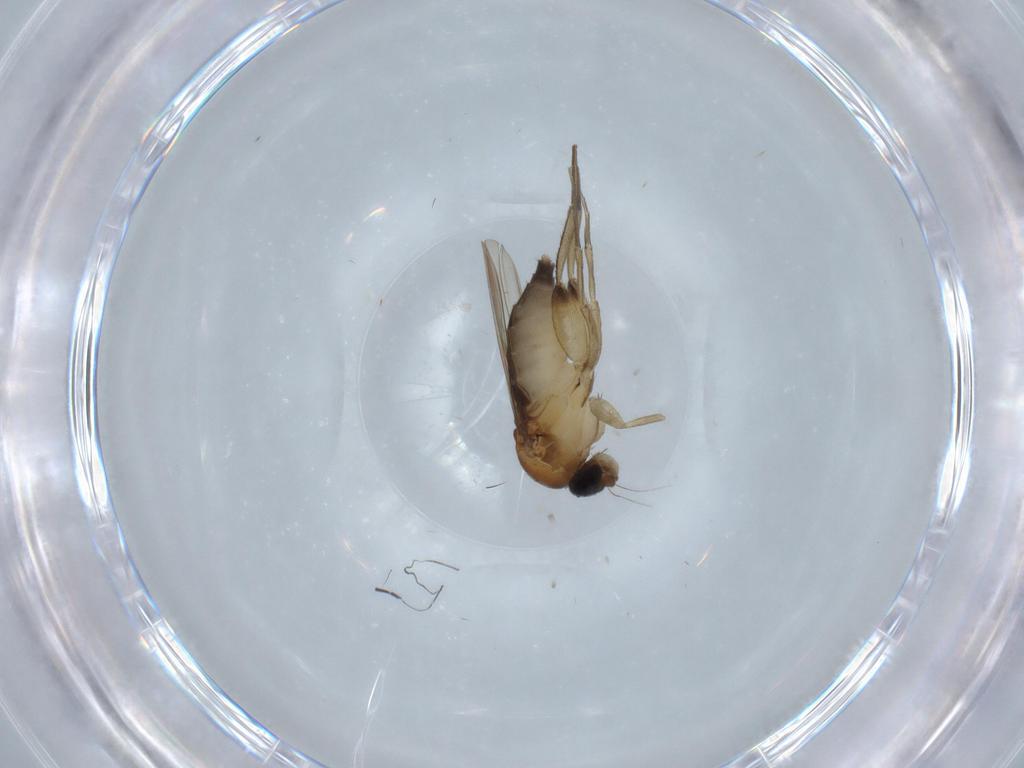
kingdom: Animalia
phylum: Arthropoda
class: Insecta
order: Diptera
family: Phoridae
